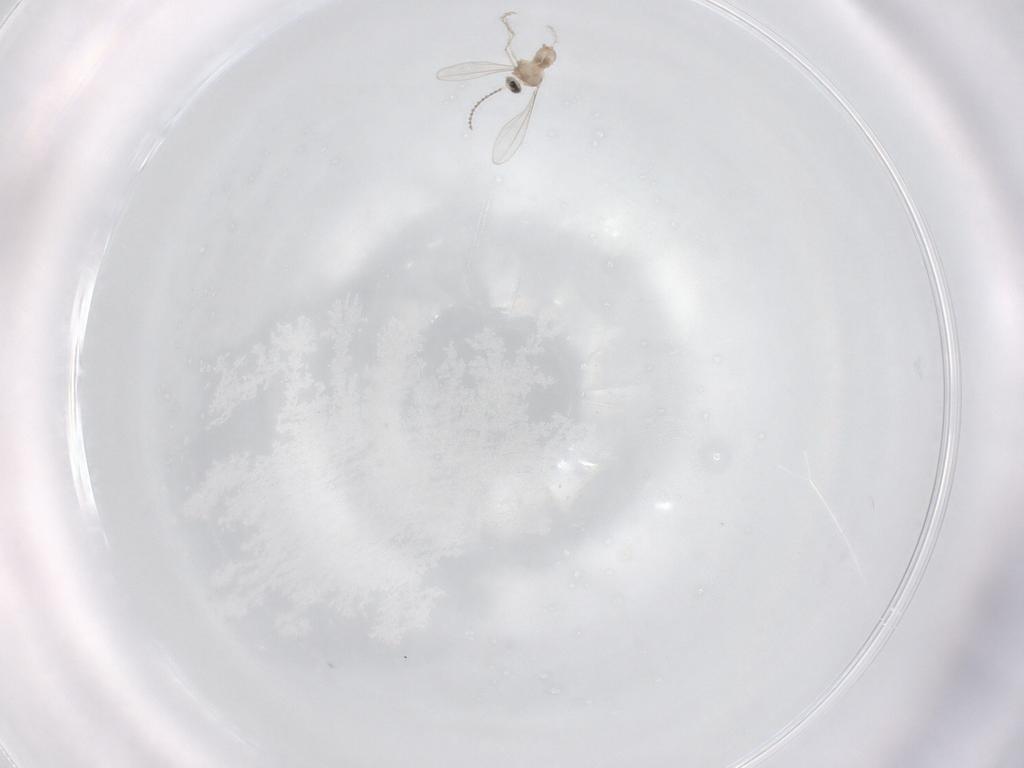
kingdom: Animalia
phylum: Arthropoda
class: Insecta
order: Diptera
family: Cecidomyiidae
